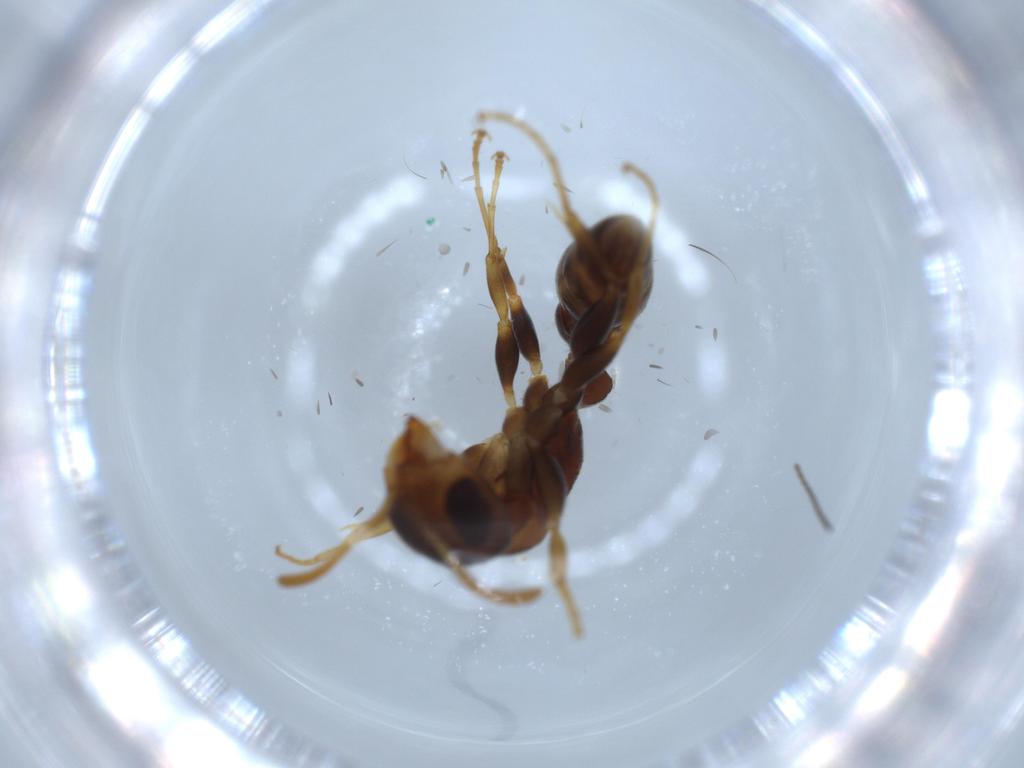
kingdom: Animalia
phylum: Arthropoda
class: Insecta
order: Hymenoptera
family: Formicidae
